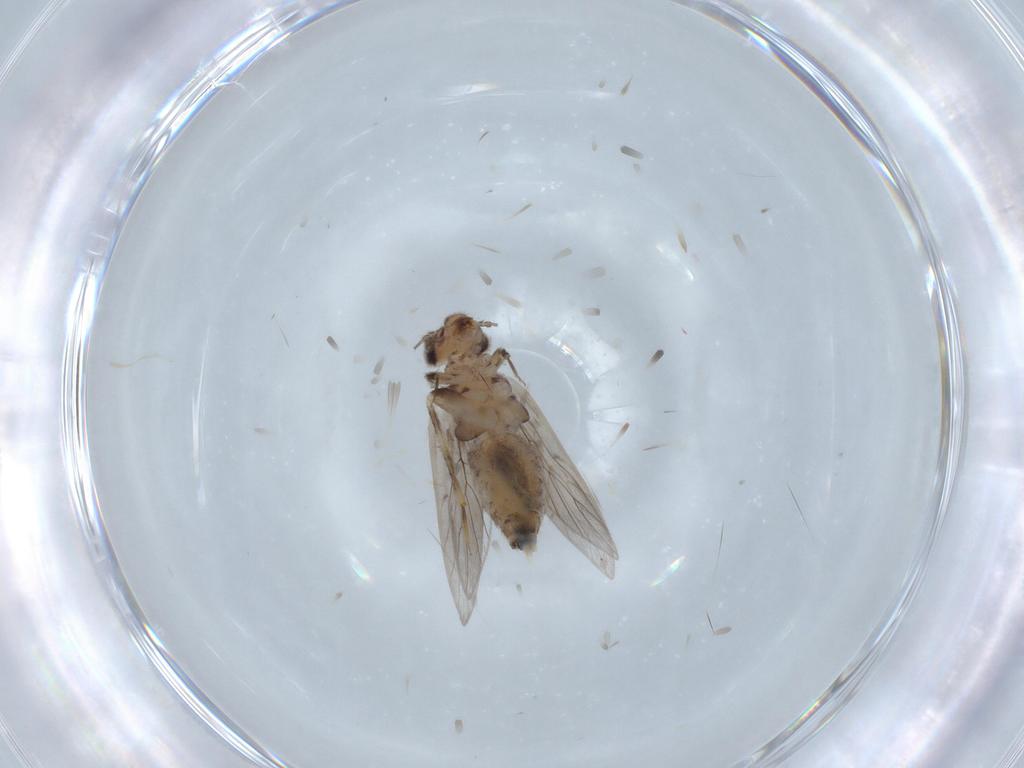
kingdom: Animalia
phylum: Arthropoda
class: Insecta
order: Psocodea
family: Lepidopsocidae
